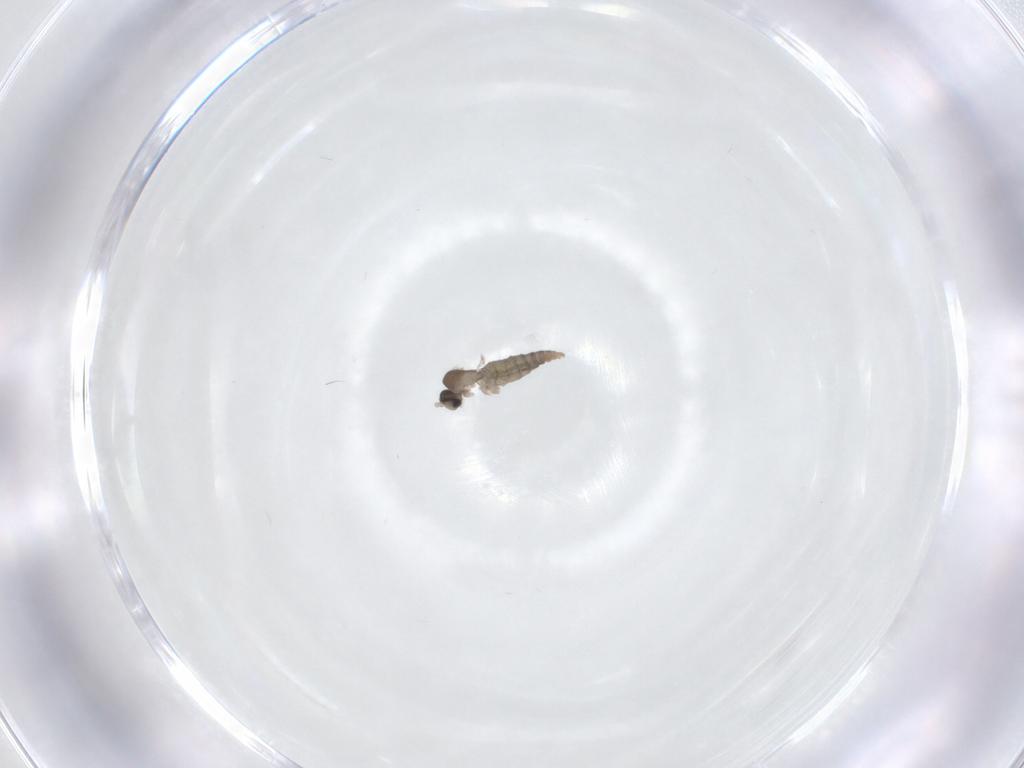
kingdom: Animalia
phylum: Arthropoda
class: Insecta
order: Diptera
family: Cecidomyiidae
